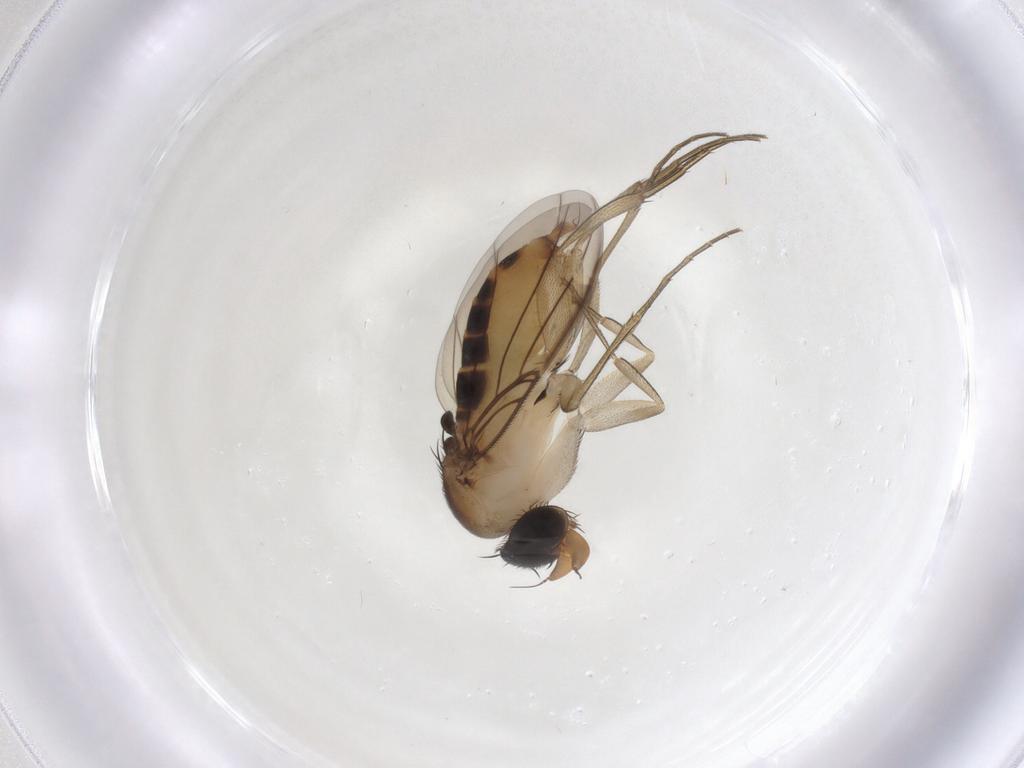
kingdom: Animalia
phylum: Arthropoda
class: Insecta
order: Diptera
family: Phoridae
